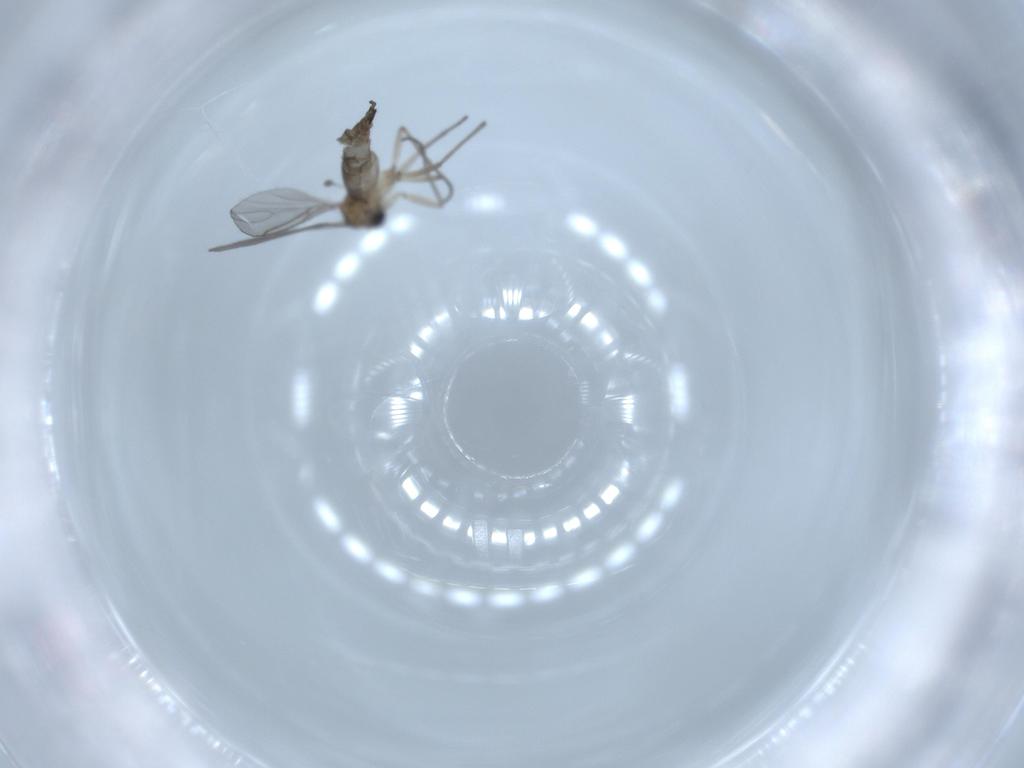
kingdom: Animalia
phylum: Arthropoda
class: Insecta
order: Diptera
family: Sciaridae
